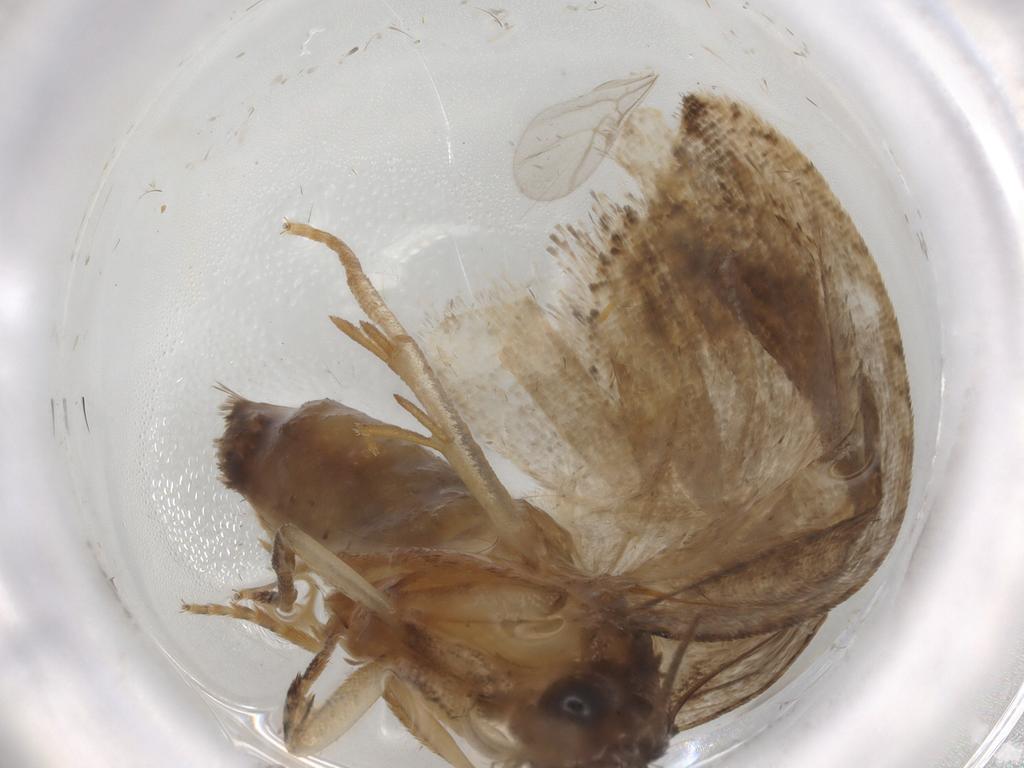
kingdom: Animalia
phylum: Arthropoda
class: Insecta
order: Lepidoptera
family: Tortricidae
